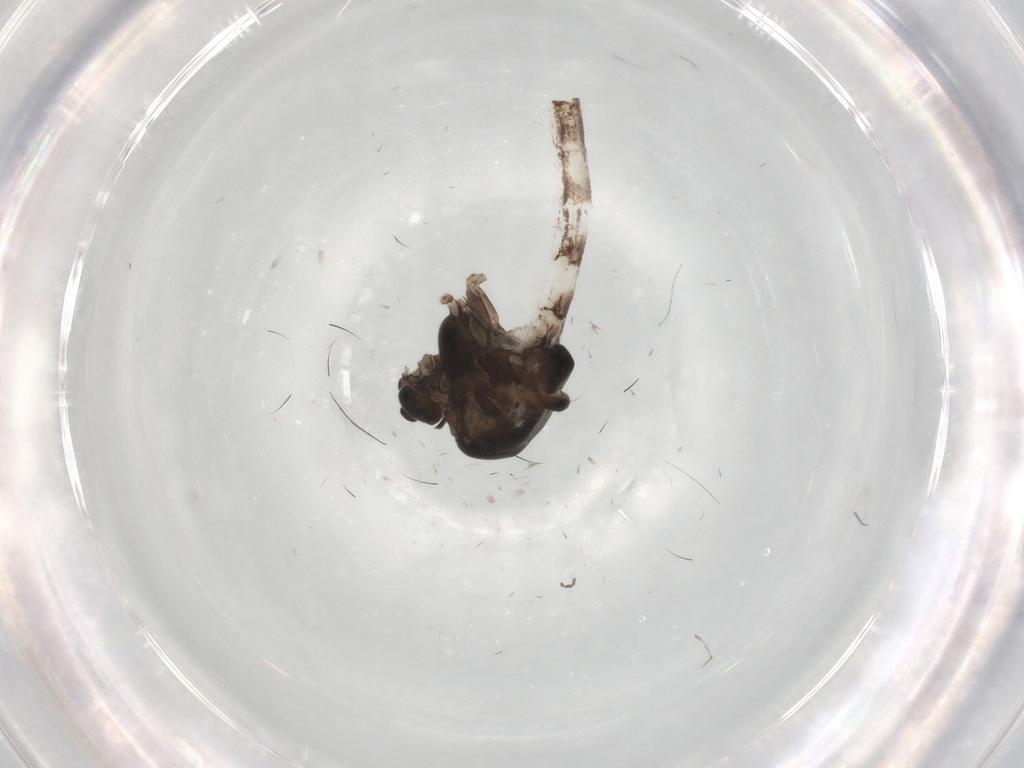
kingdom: Animalia
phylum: Arthropoda
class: Insecta
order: Diptera
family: Chironomidae
